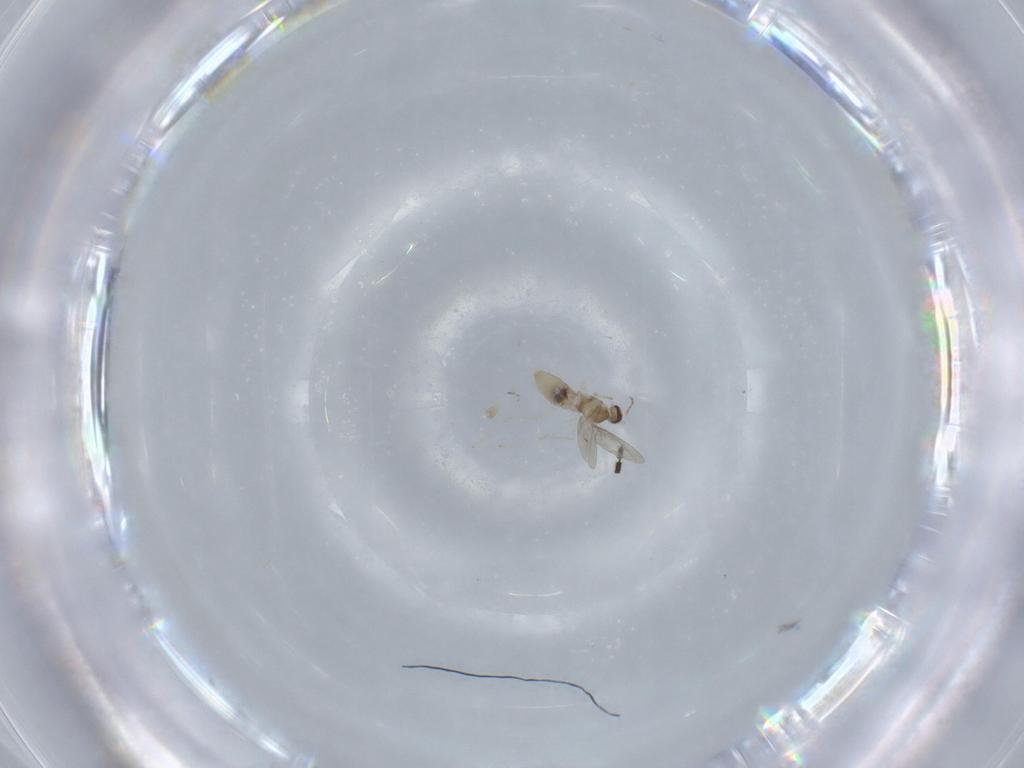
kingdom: Animalia
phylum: Arthropoda
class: Insecta
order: Diptera
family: Cecidomyiidae
